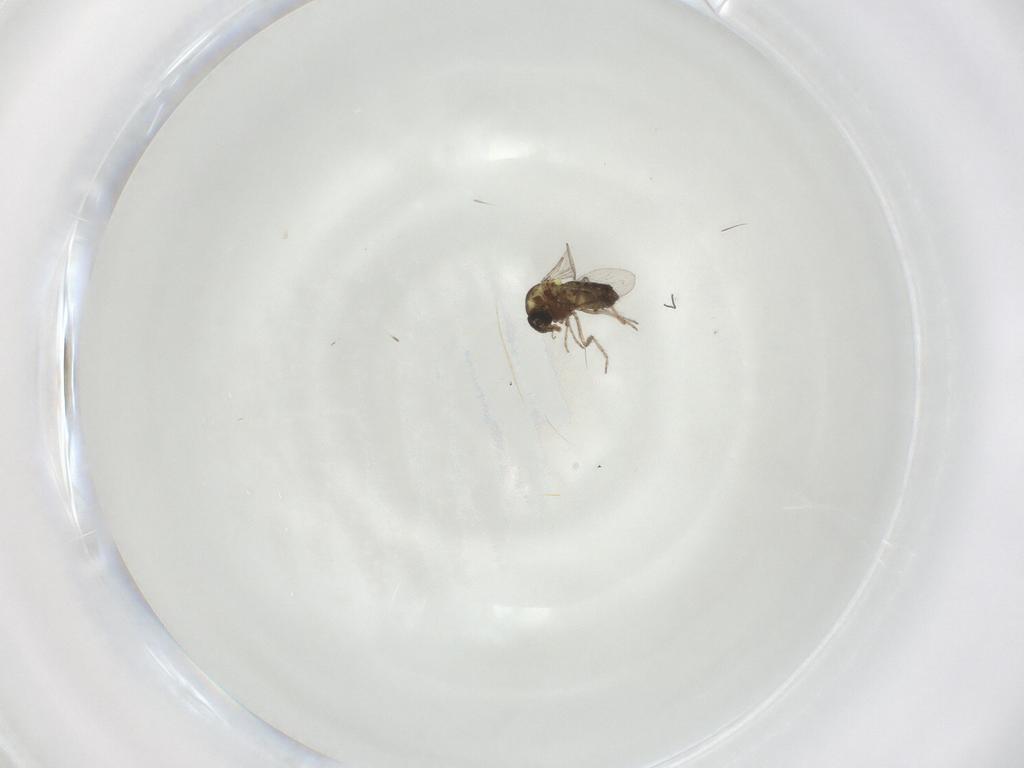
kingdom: Animalia
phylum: Arthropoda
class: Insecta
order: Diptera
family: Ceratopogonidae
